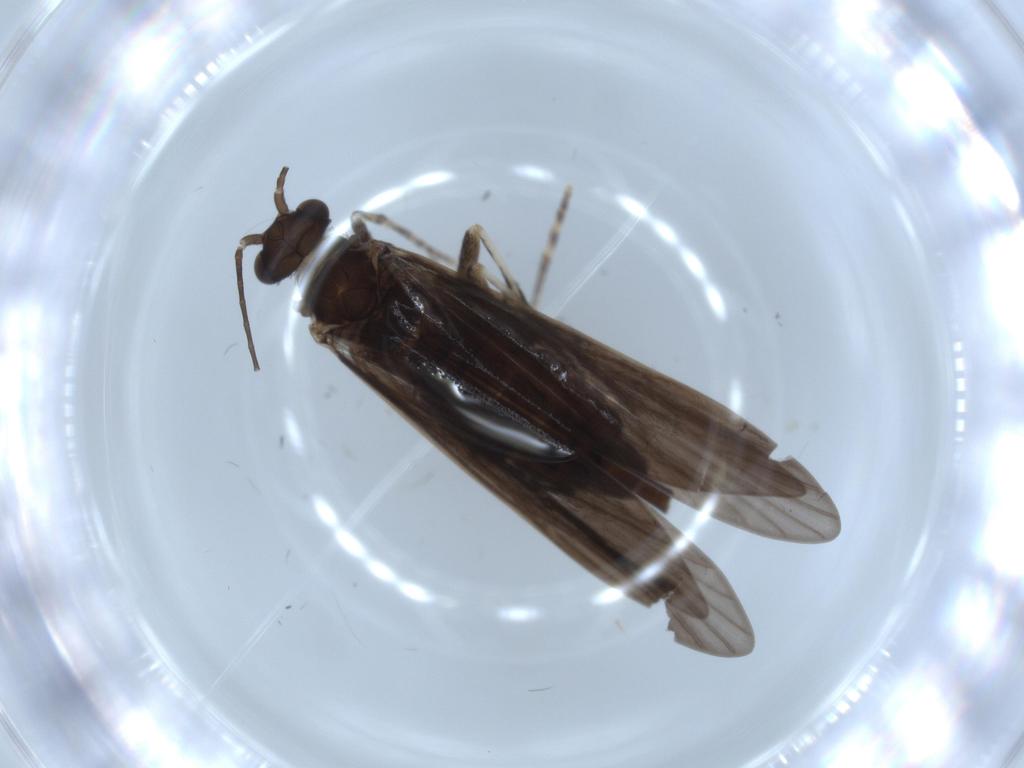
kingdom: Animalia
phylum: Arthropoda
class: Insecta
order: Trichoptera
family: Xiphocentronidae
